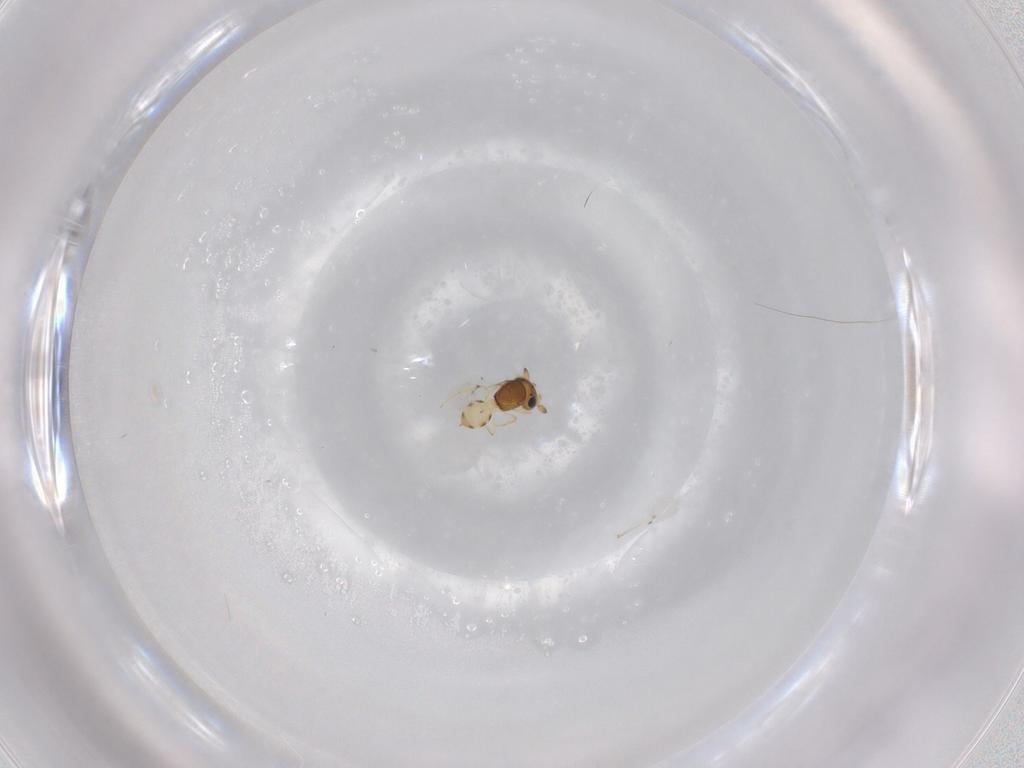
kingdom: Animalia
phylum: Arthropoda
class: Insecta
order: Hymenoptera
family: Scelionidae
